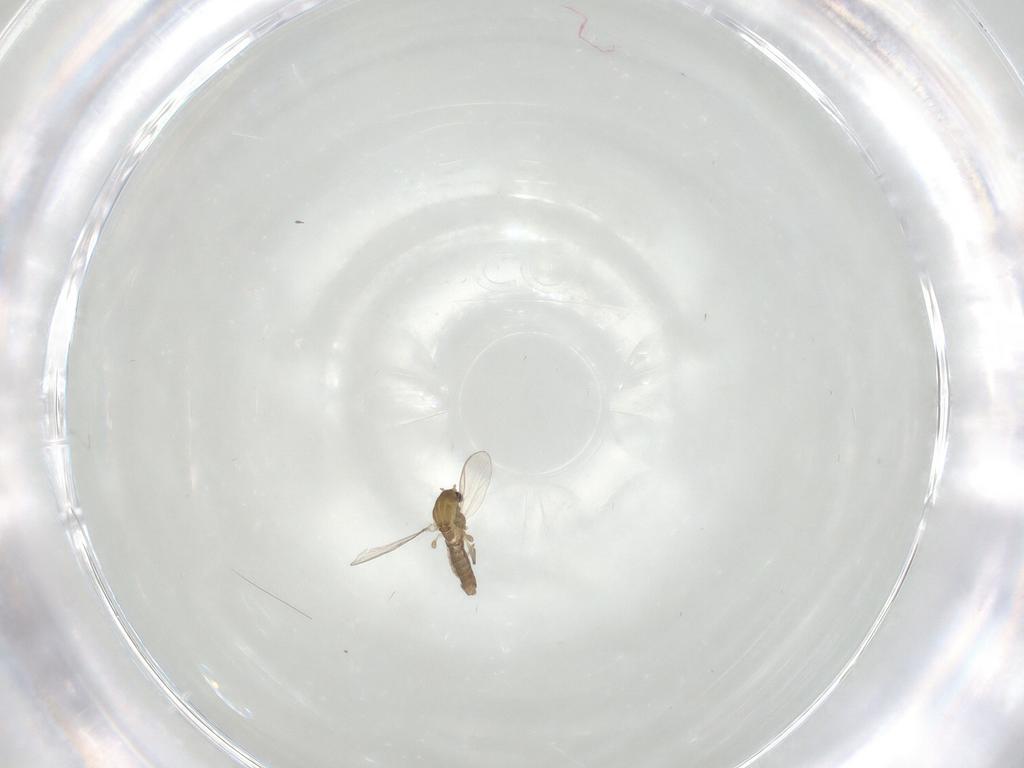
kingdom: Animalia
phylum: Arthropoda
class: Insecta
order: Diptera
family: Chironomidae
